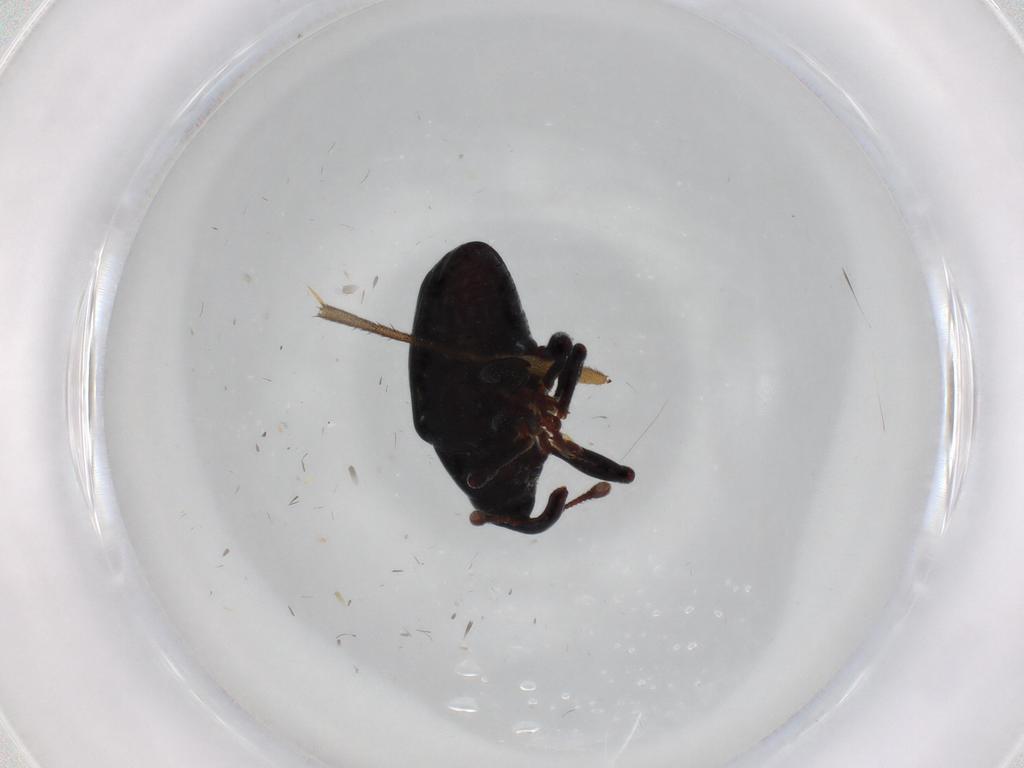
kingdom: Animalia
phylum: Arthropoda
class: Insecta
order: Coleoptera
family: Curculionidae
